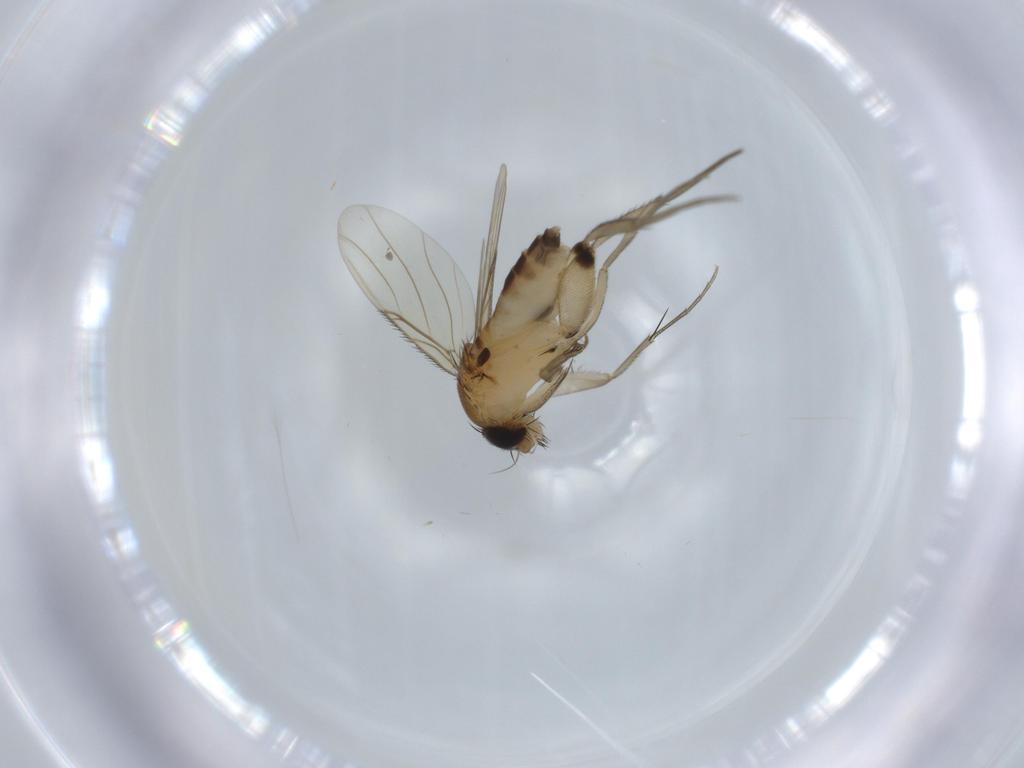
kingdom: Animalia
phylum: Arthropoda
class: Insecta
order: Diptera
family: Phoridae
